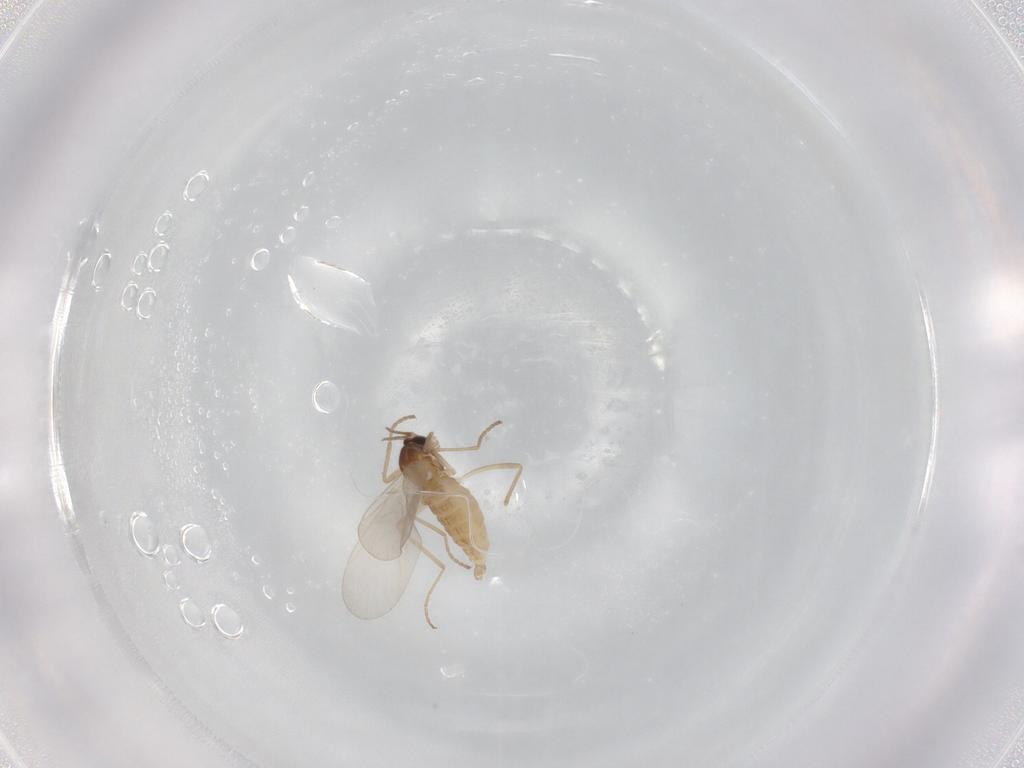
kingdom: Animalia
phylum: Arthropoda
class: Insecta
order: Diptera
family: Cecidomyiidae
